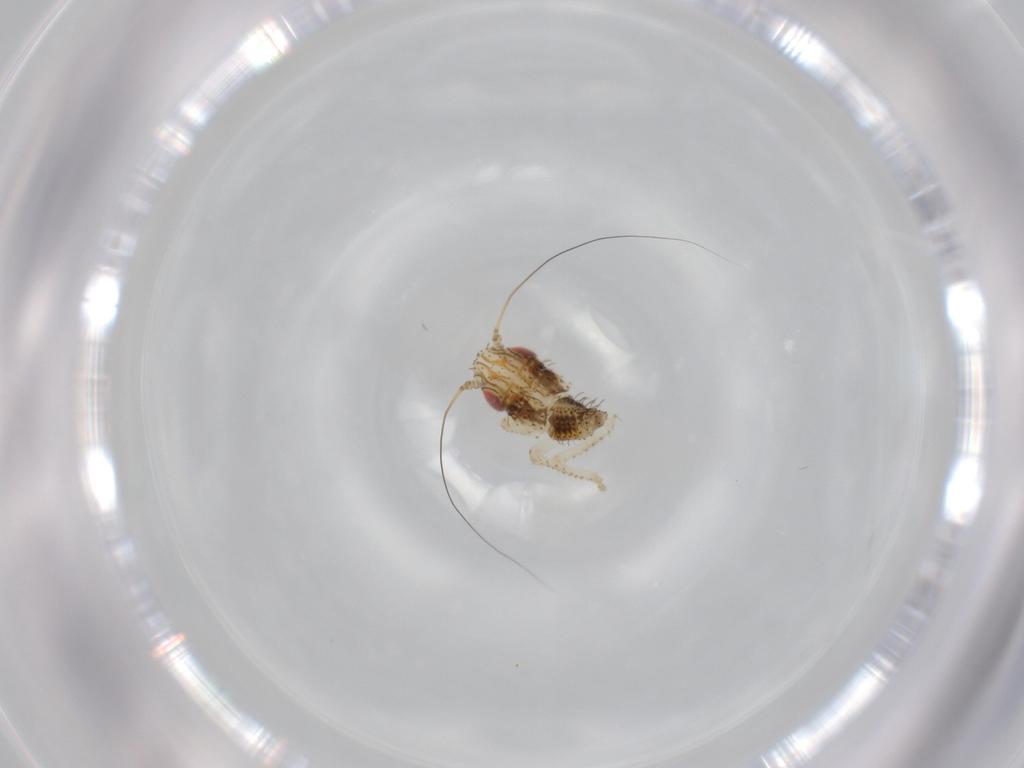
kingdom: Animalia
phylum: Arthropoda
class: Insecta
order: Hemiptera
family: Cicadellidae
